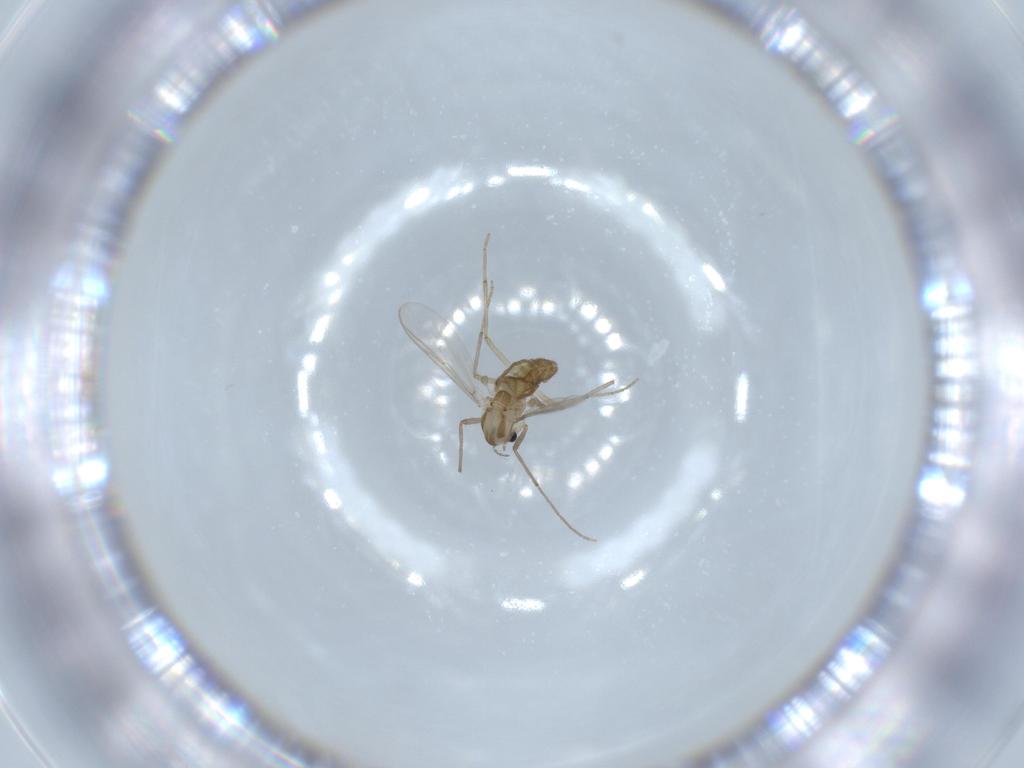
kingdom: Animalia
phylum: Arthropoda
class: Insecta
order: Diptera
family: Chironomidae
